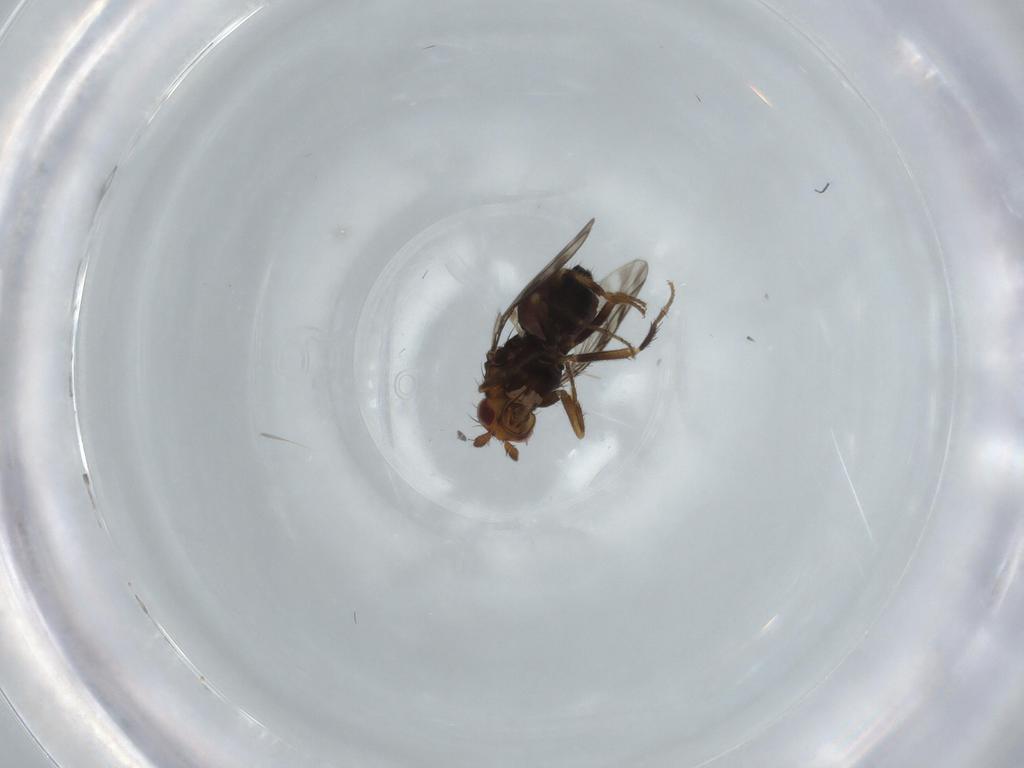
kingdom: Animalia
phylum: Arthropoda
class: Insecta
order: Diptera
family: Sphaeroceridae
